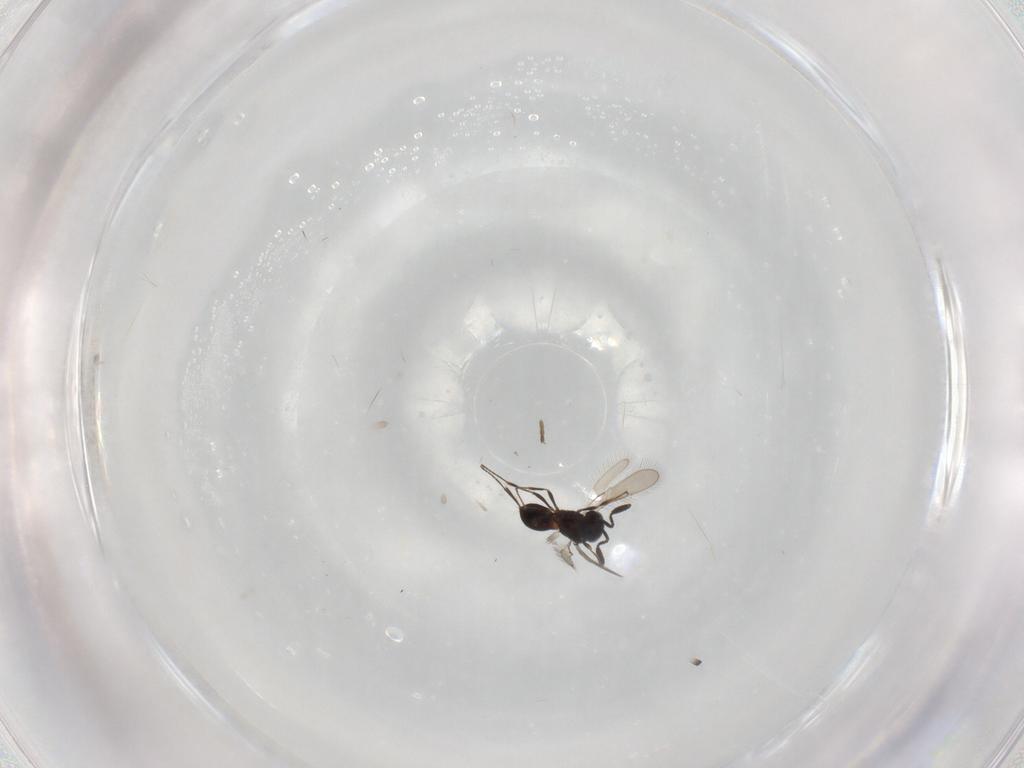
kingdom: Animalia
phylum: Arthropoda
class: Insecta
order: Hymenoptera
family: Scelionidae
